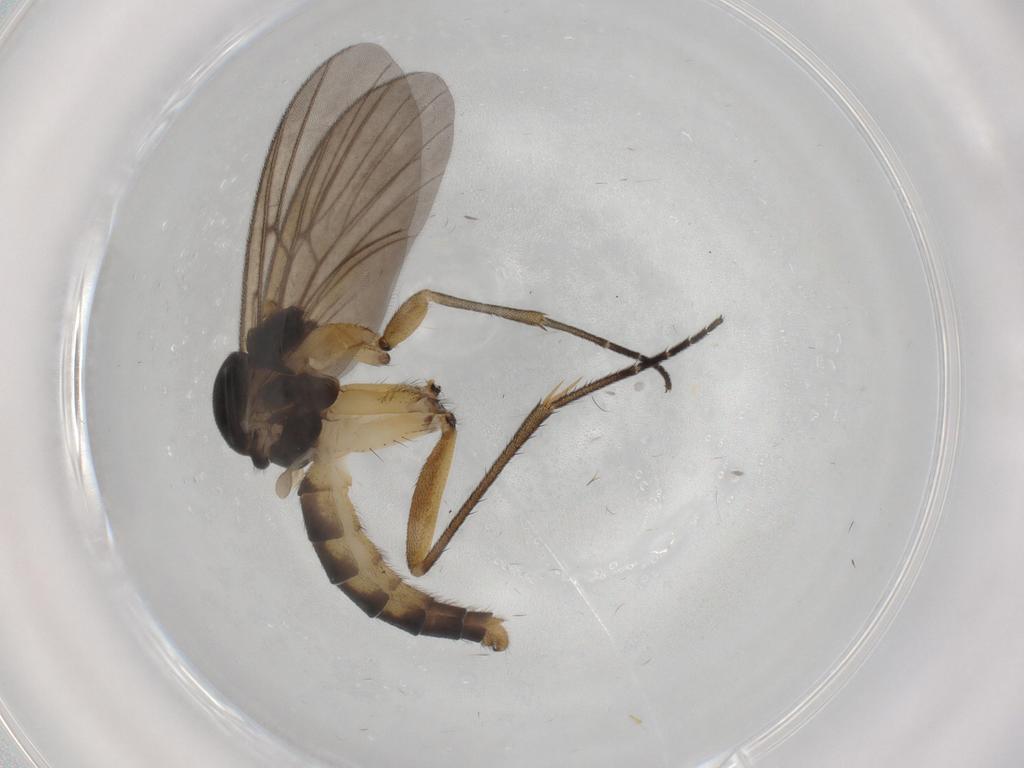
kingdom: Animalia
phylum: Arthropoda
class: Insecta
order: Diptera
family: Chironomidae
